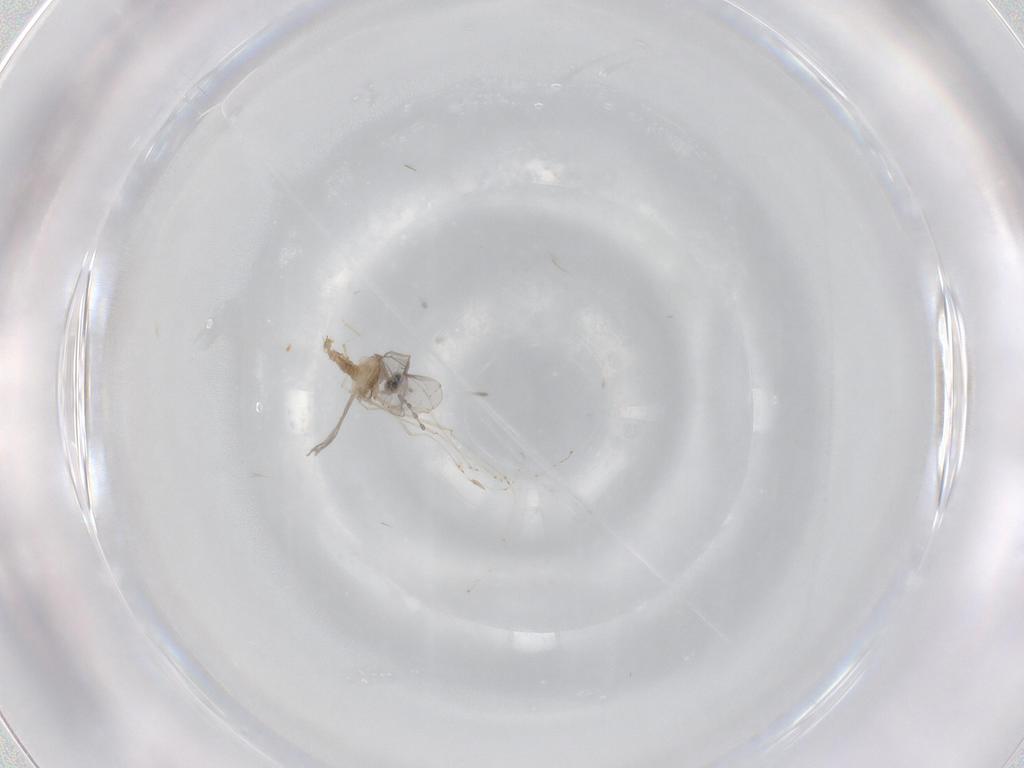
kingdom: Animalia
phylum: Arthropoda
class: Insecta
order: Diptera
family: Cecidomyiidae
